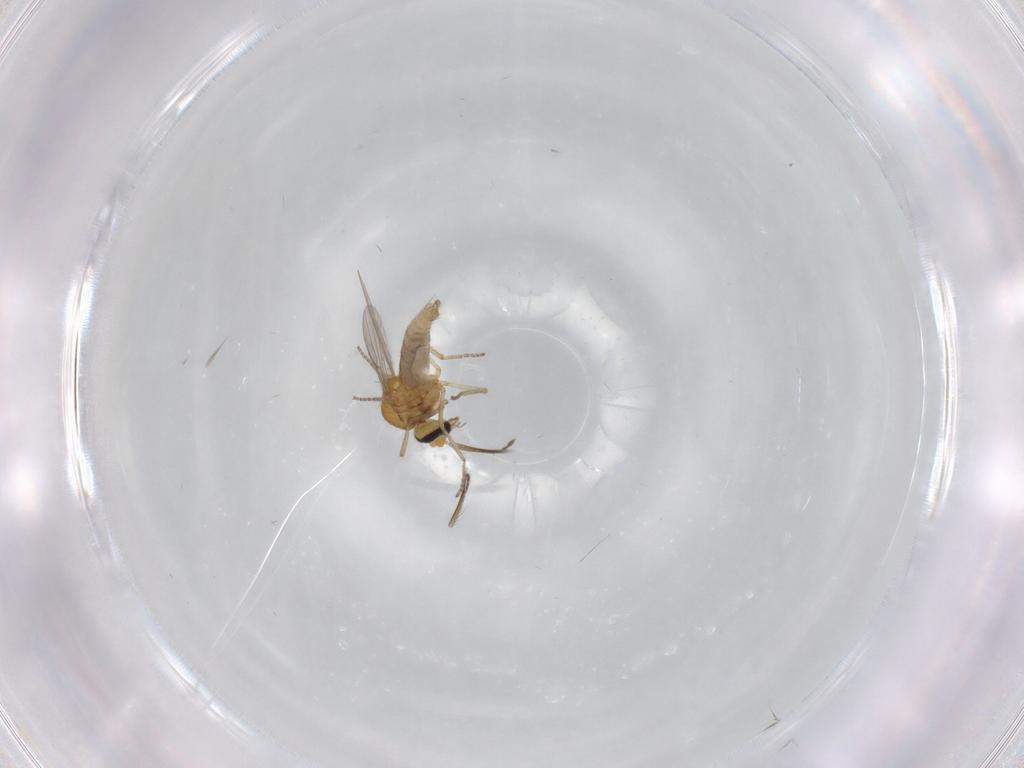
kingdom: Animalia
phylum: Arthropoda
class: Insecta
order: Diptera
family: Ceratopogonidae
